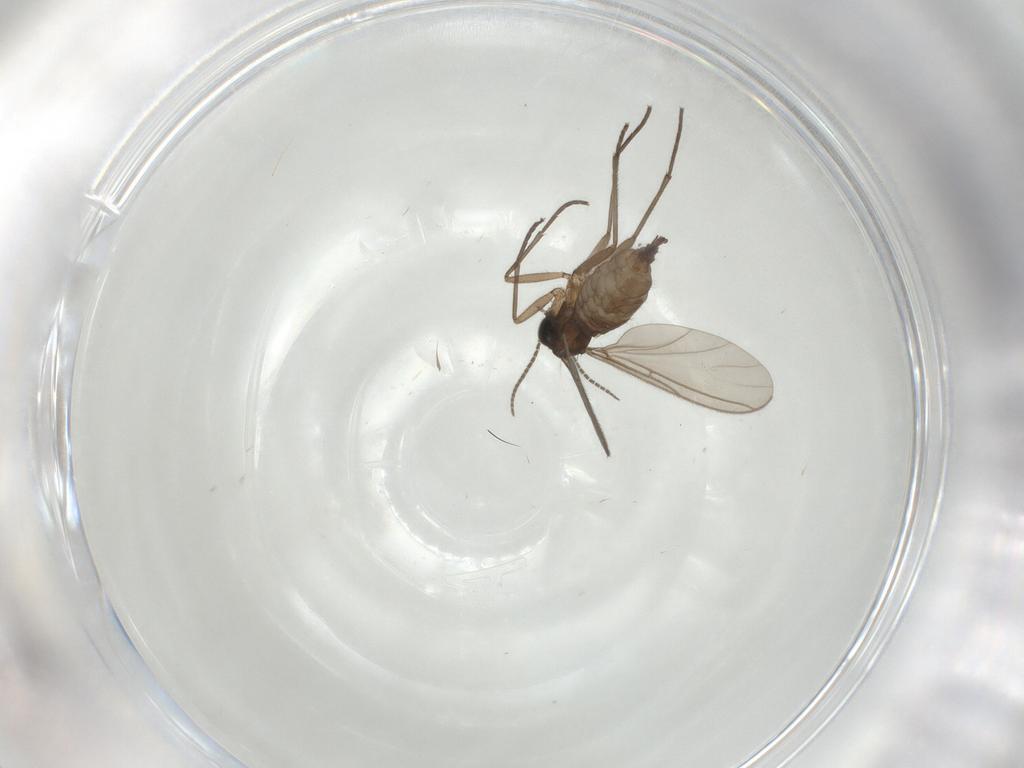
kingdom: Animalia
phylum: Arthropoda
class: Insecta
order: Diptera
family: Sciaridae
